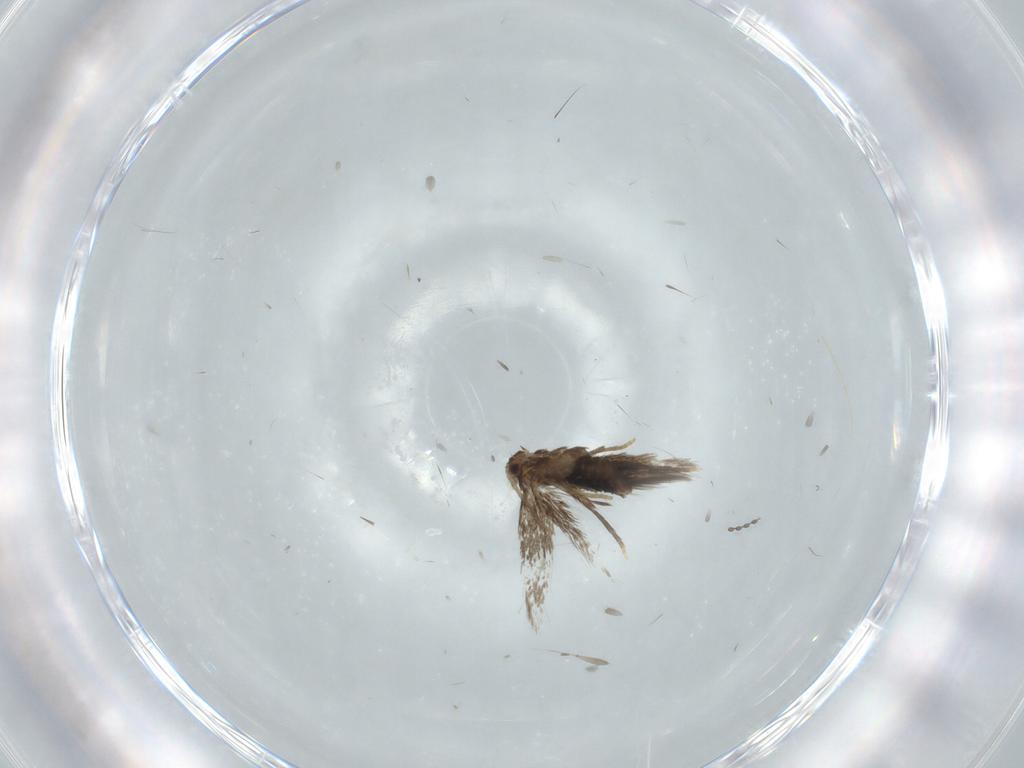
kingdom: Animalia
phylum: Arthropoda
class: Insecta
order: Lepidoptera
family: Nepticulidae
